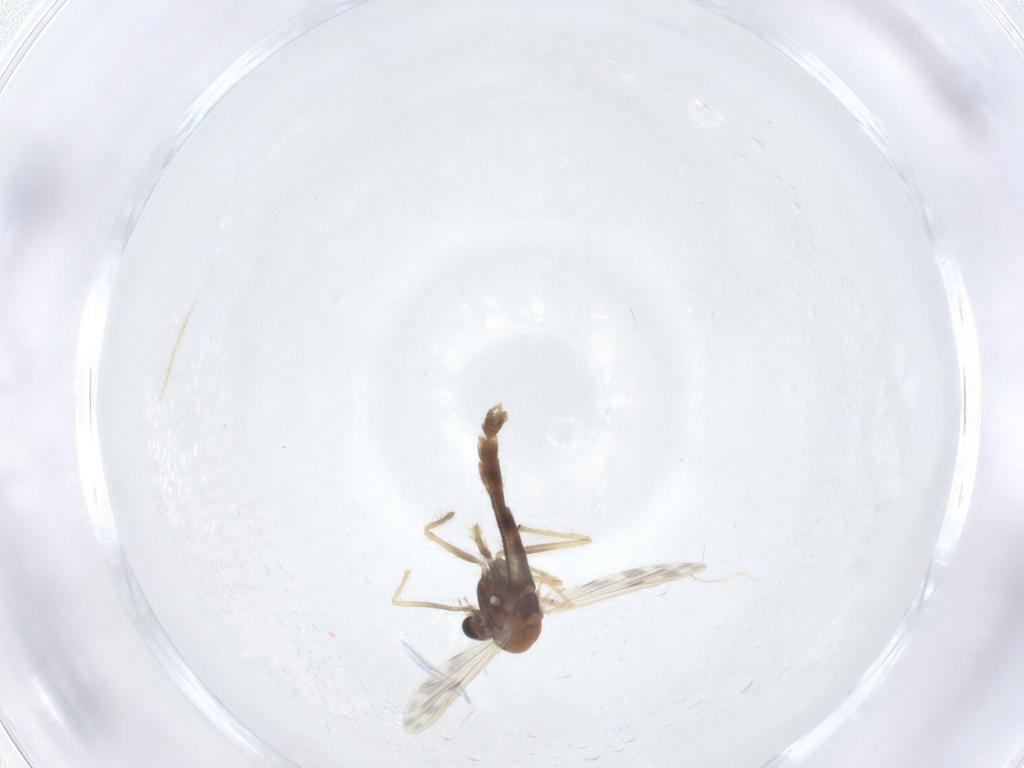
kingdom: Animalia
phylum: Arthropoda
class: Insecta
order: Diptera
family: Chironomidae
